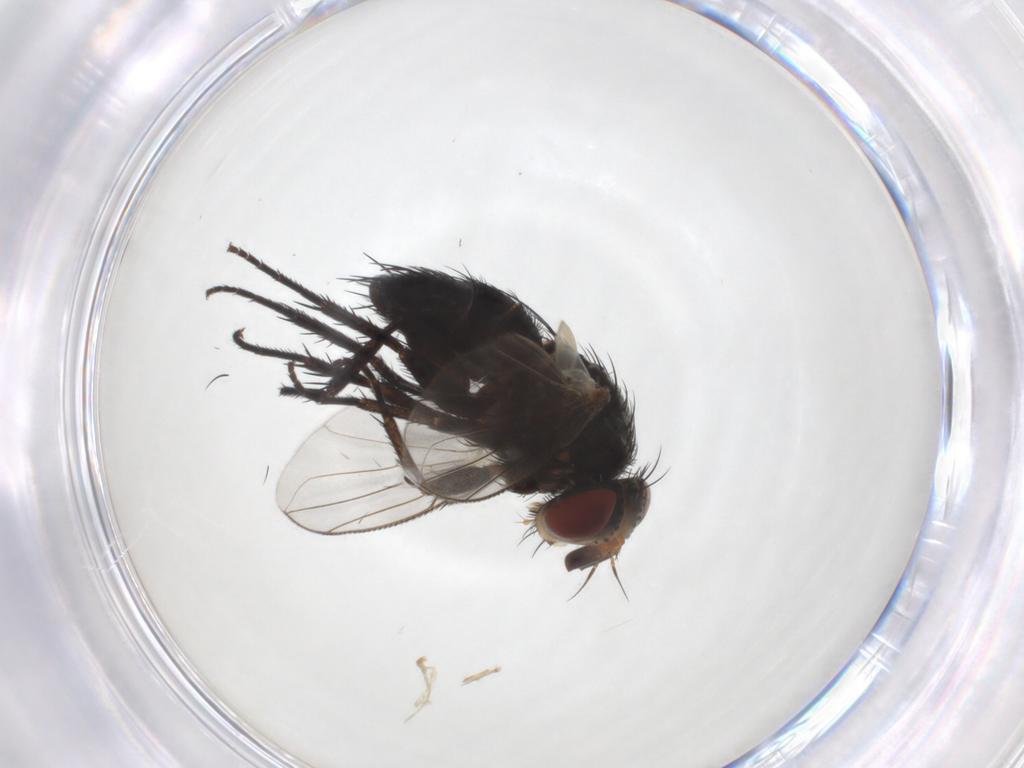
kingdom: Animalia
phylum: Arthropoda
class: Insecta
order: Diptera
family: Tachinidae
